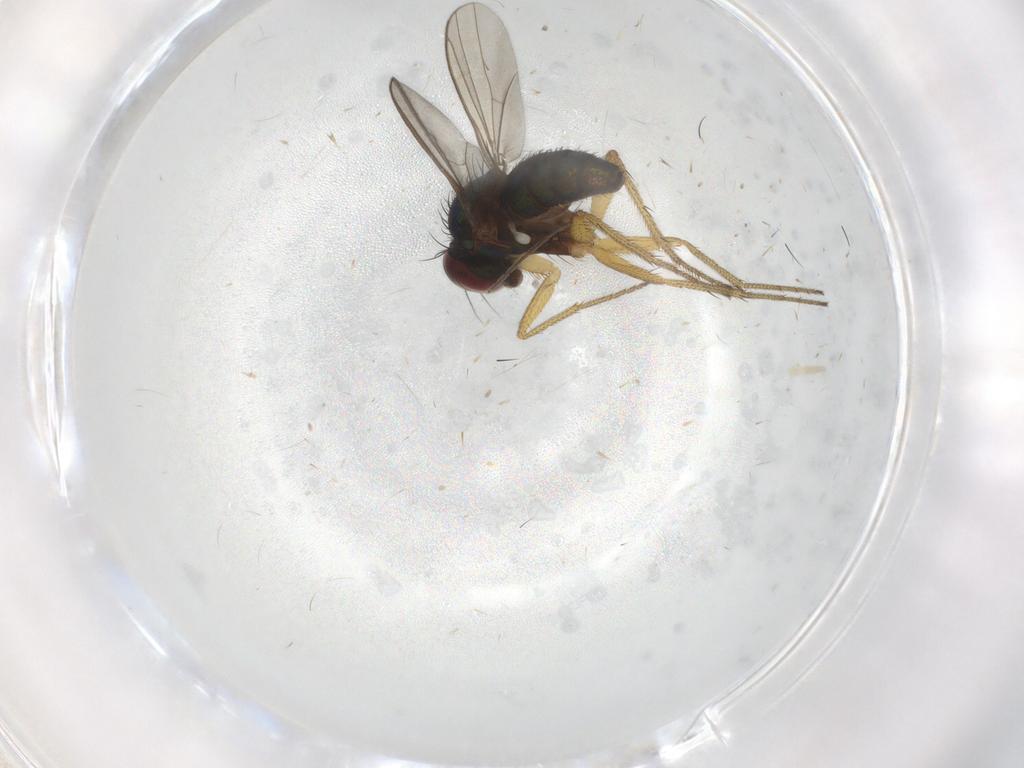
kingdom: Animalia
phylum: Arthropoda
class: Insecta
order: Diptera
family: Dolichopodidae
